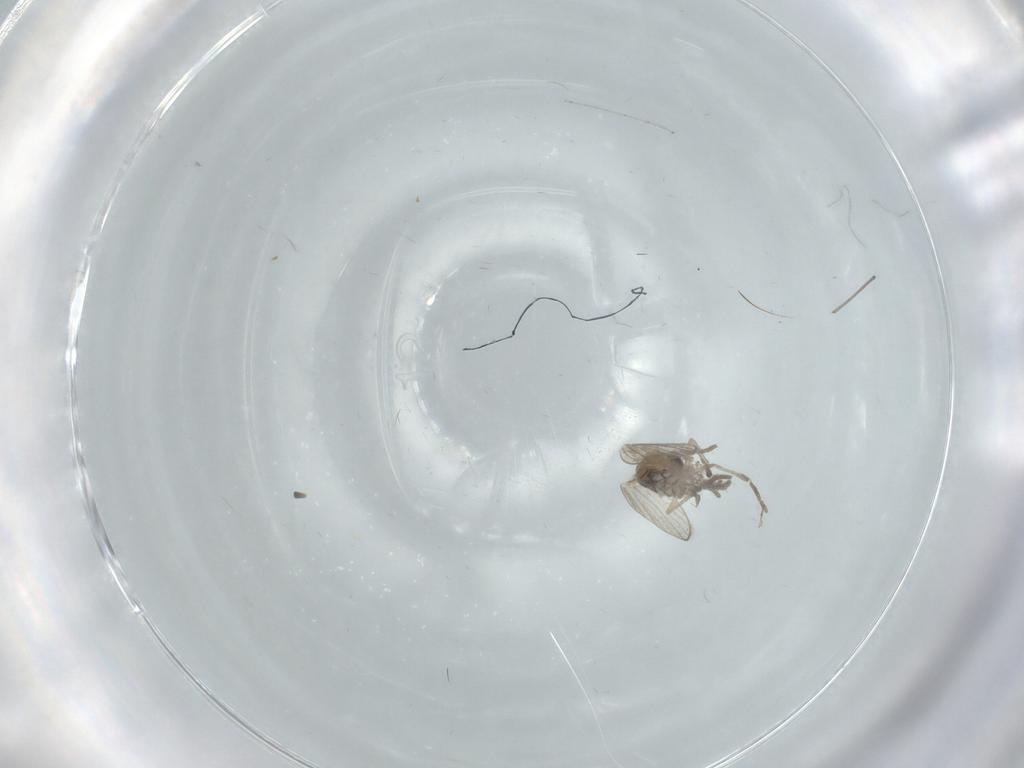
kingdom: Animalia
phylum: Arthropoda
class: Insecta
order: Diptera
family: Psychodidae
